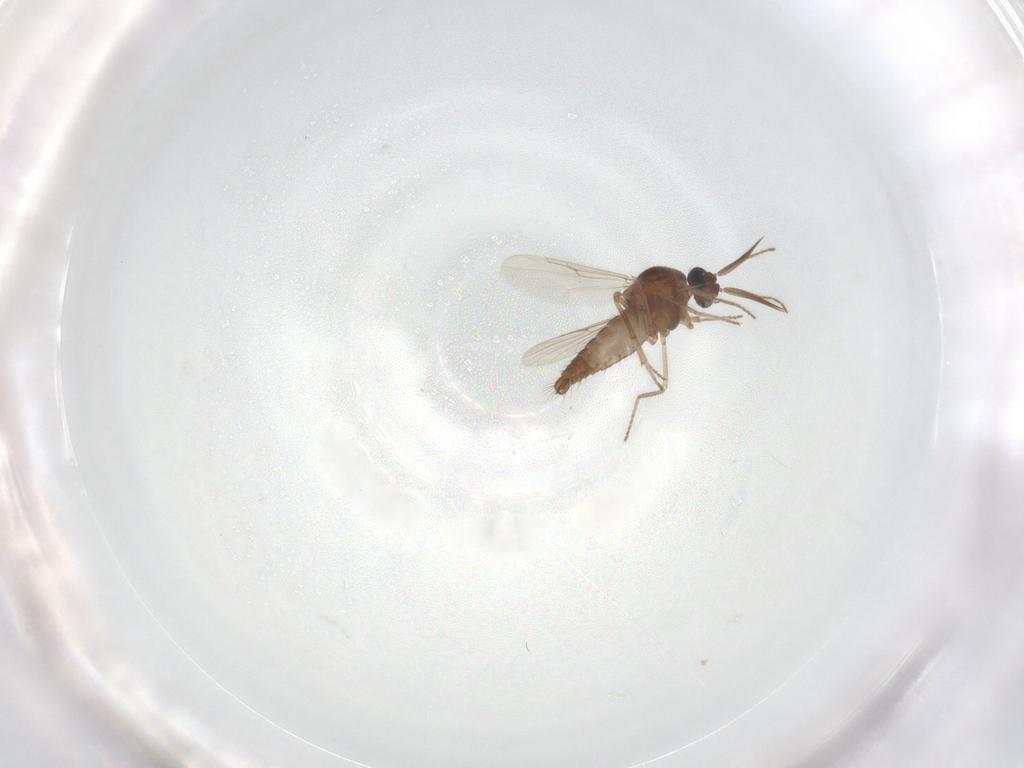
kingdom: Animalia
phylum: Arthropoda
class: Insecta
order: Diptera
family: Ceratopogonidae
